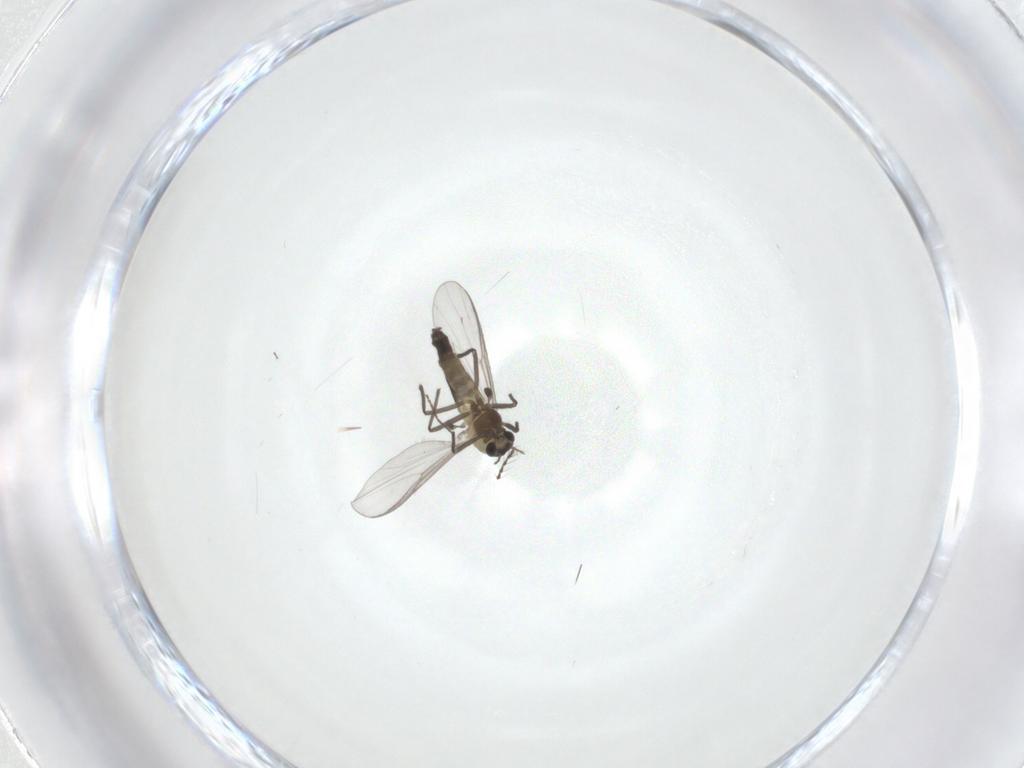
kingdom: Animalia
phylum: Arthropoda
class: Insecta
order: Diptera
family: Chironomidae
